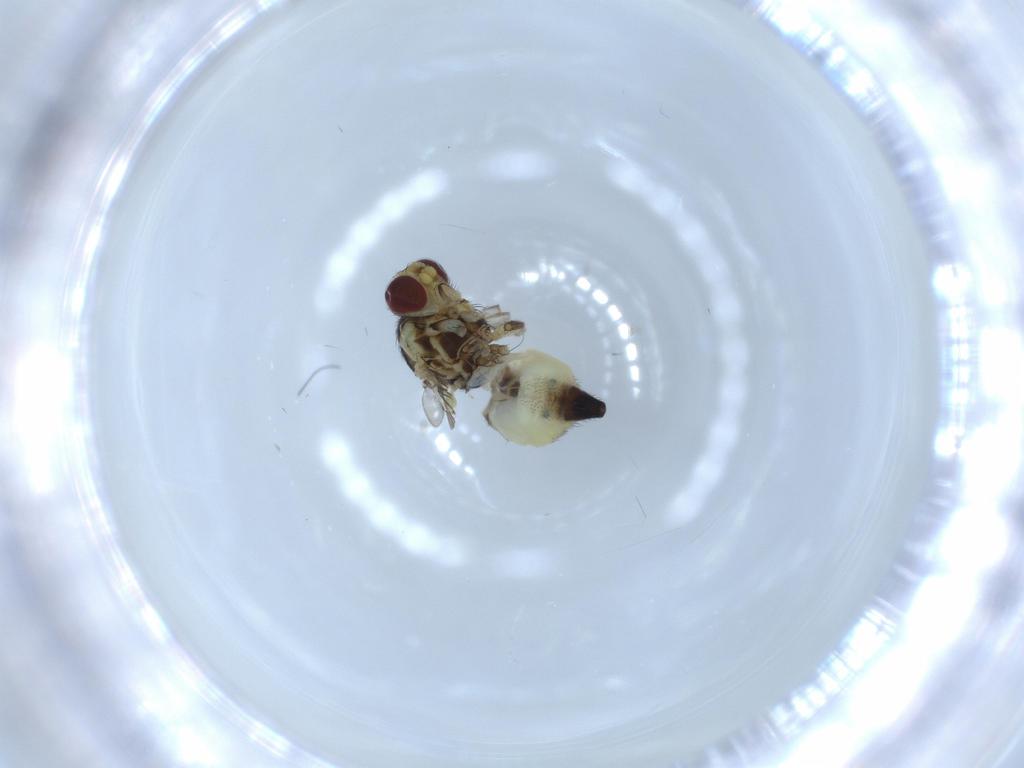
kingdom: Animalia
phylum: Arthropoda
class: Insecta
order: Diptera
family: Agromyzidae
